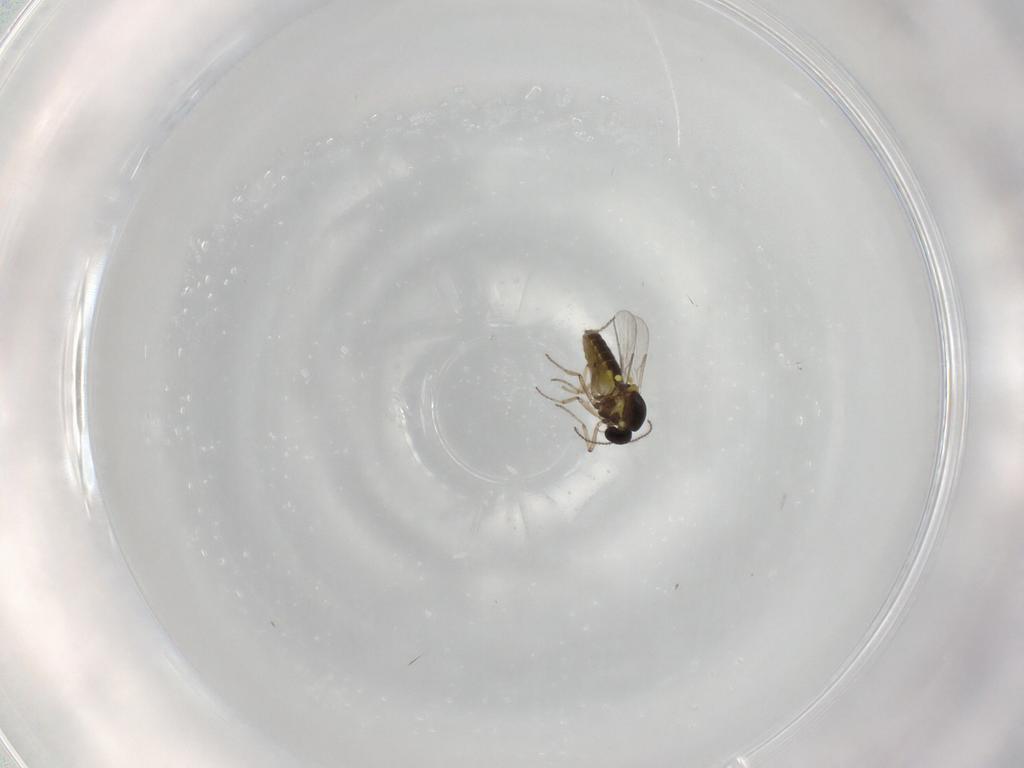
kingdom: Animalia
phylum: Arthropoda
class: Insecta
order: Diptera
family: Ceratopogonidae
